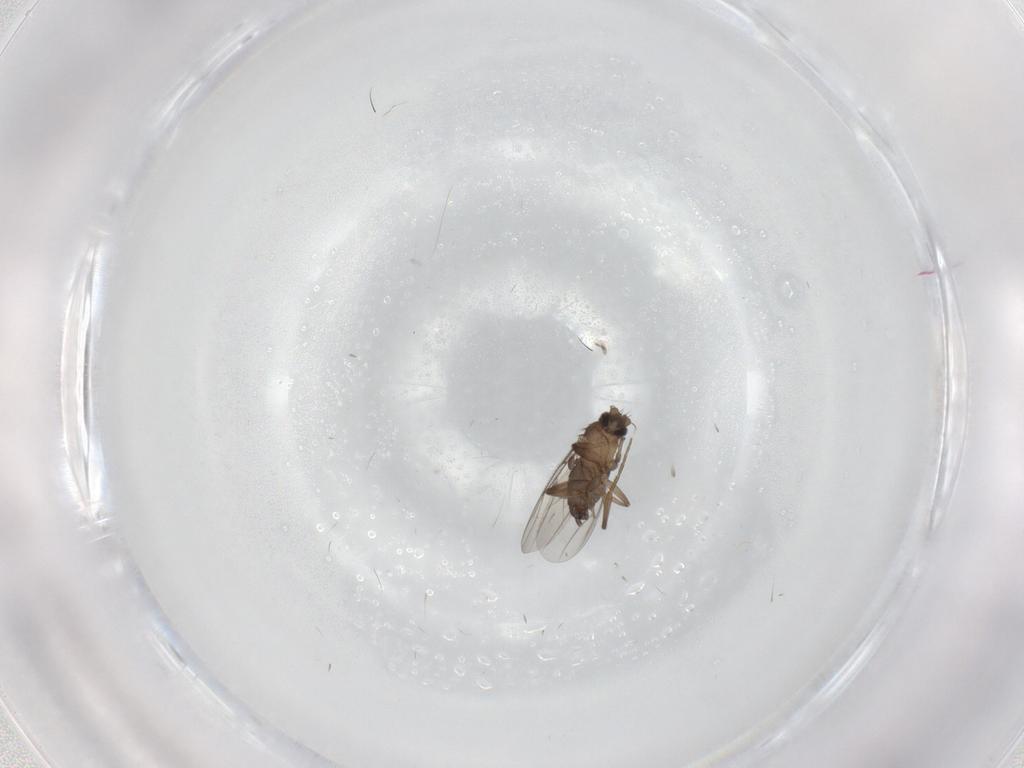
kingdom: Animalia
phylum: Arthropoda
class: Insecta
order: Diptera
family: Phoridae
